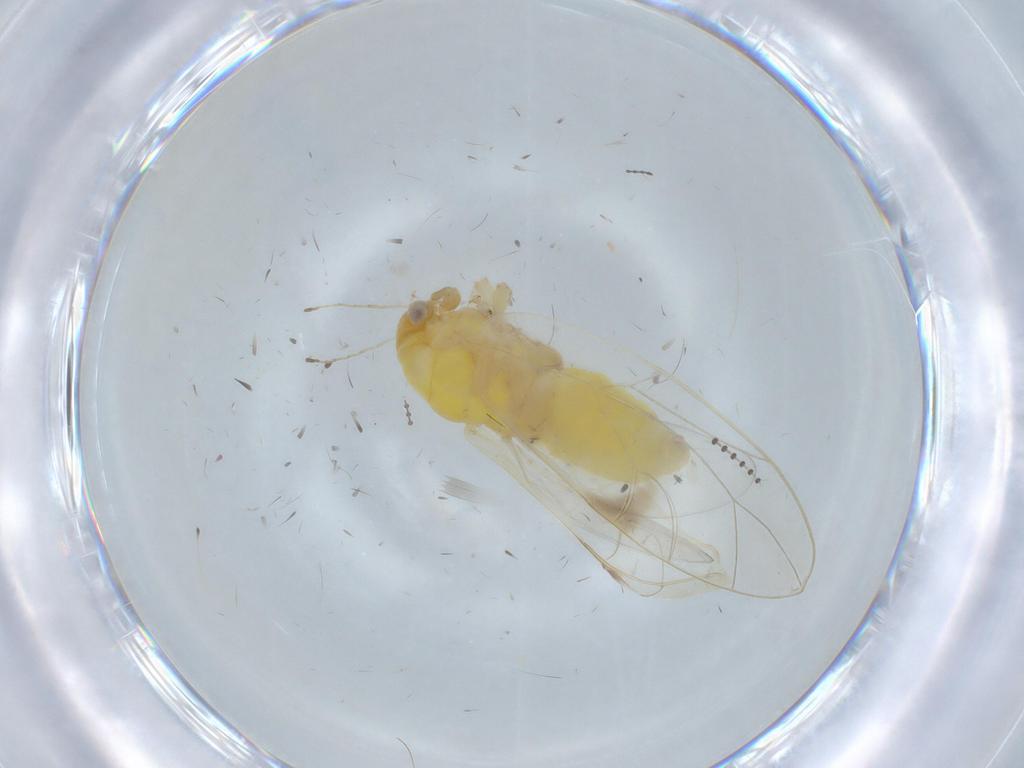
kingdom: Animalia
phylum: Arthropoda
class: Insecta
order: Hemiptera
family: Triozidae
